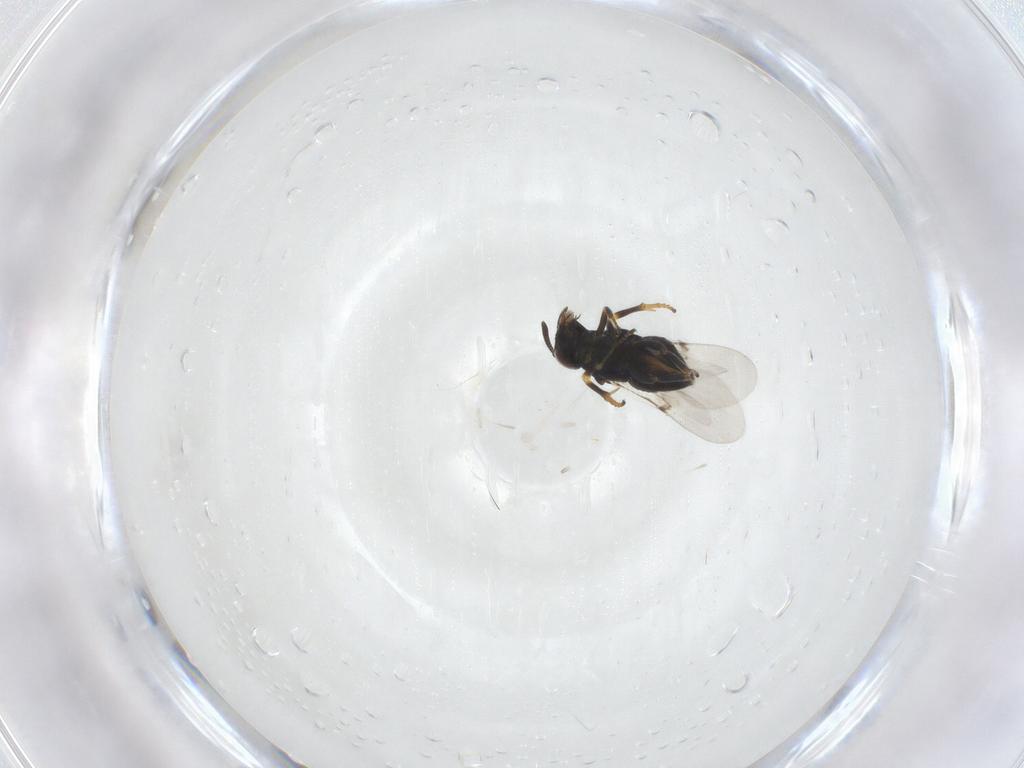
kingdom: Animalia
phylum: Arthropoda
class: Insecta
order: Hymenoptera
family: Encyrtidae
